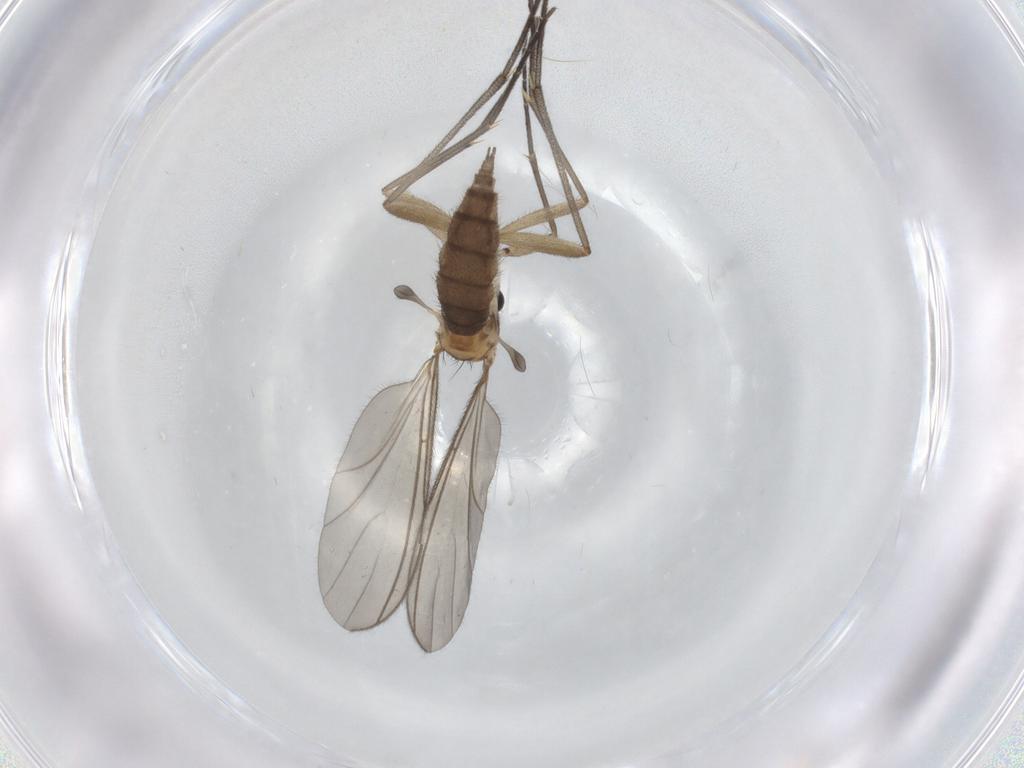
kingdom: Animalia
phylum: Arthropoda
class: Insecta
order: Diptera
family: Sciaridae
